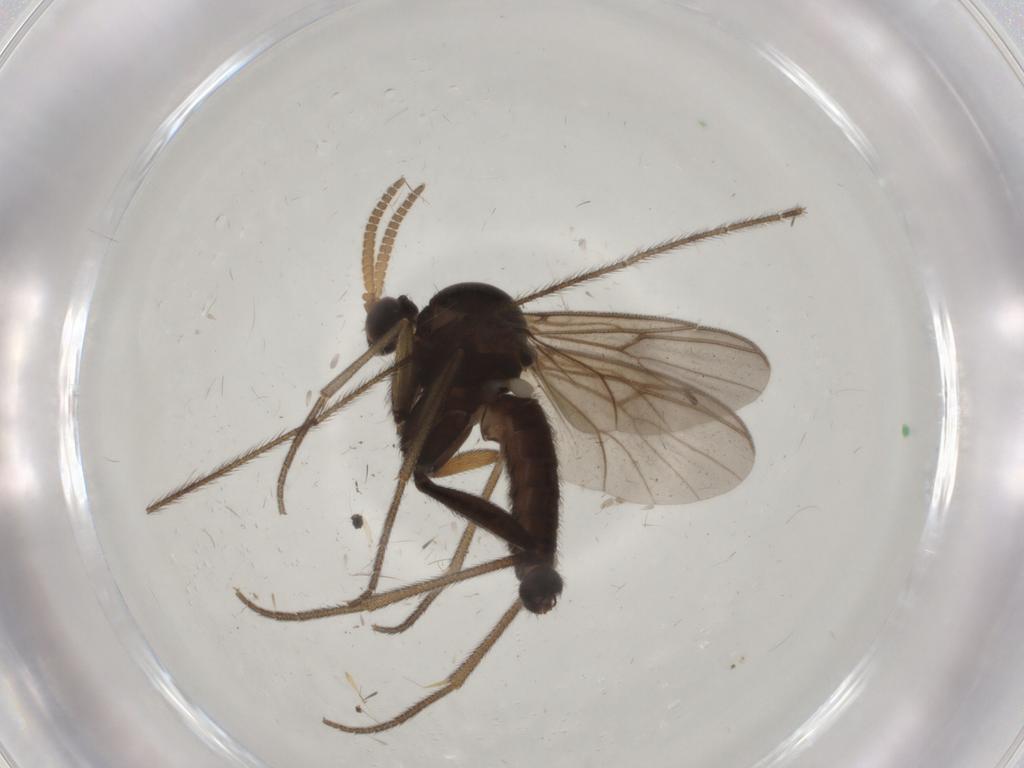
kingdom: Animalia
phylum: Arthropoda
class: Insecta
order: Diptera
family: Mycetophilidae
